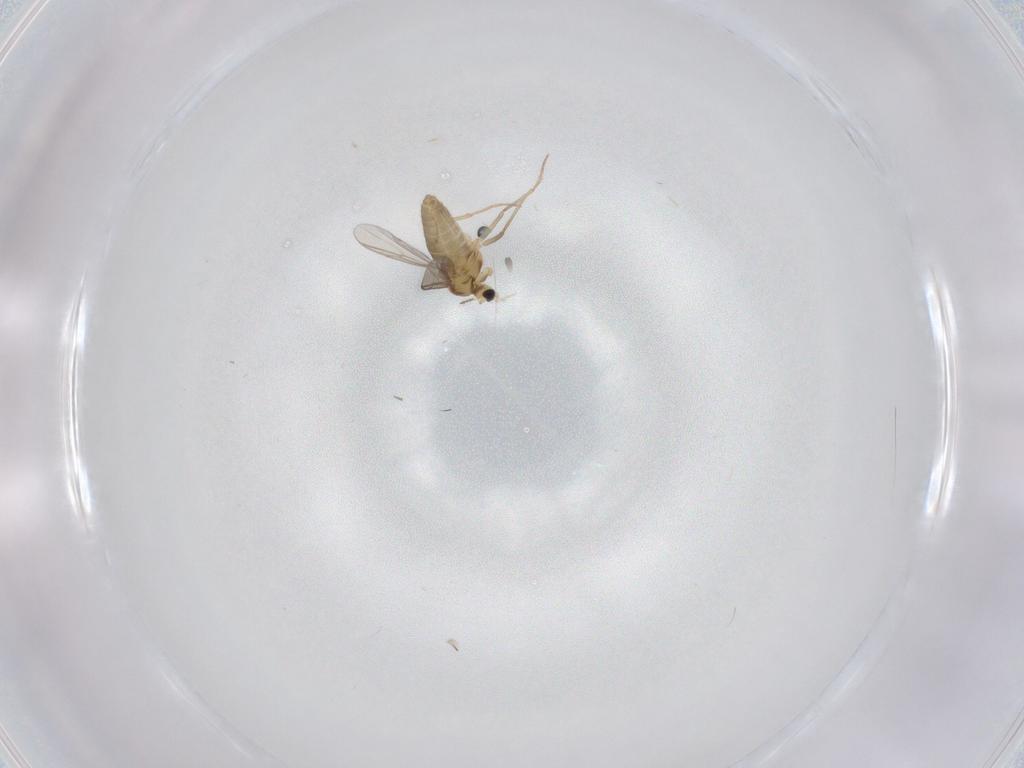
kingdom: Animalia
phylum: Arthropoda
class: Insecta
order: Diptera
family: Chironomidae
